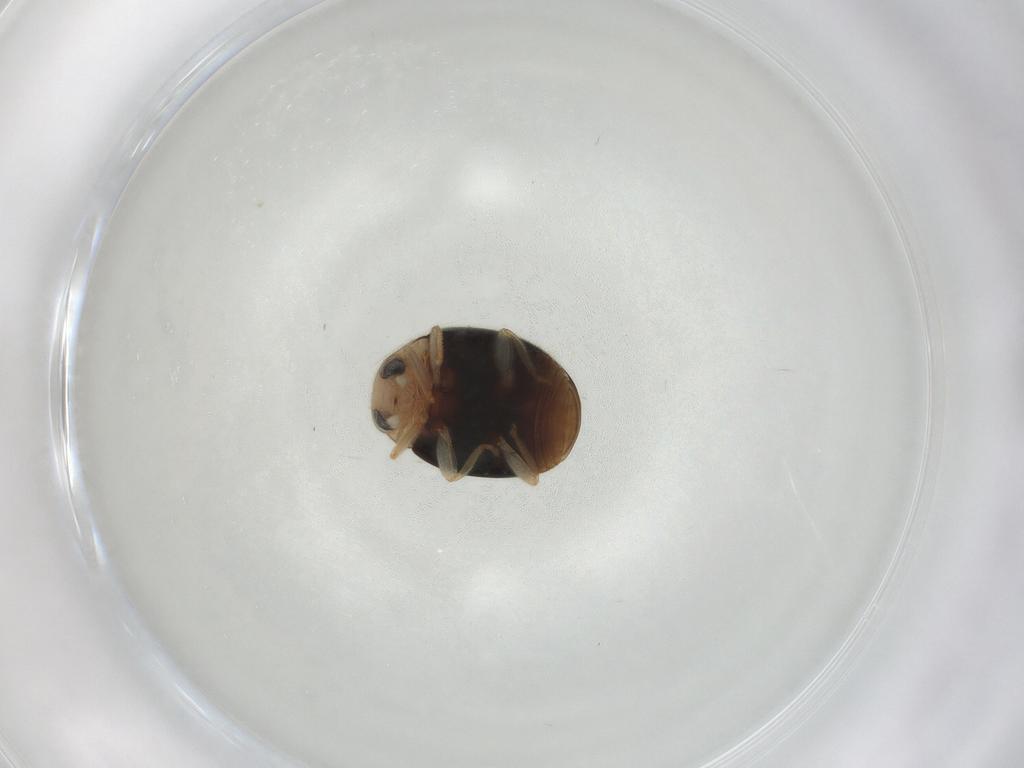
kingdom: Animalia
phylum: Arthropoda
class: Insecta
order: Coleoptera
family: Coccinellidae
